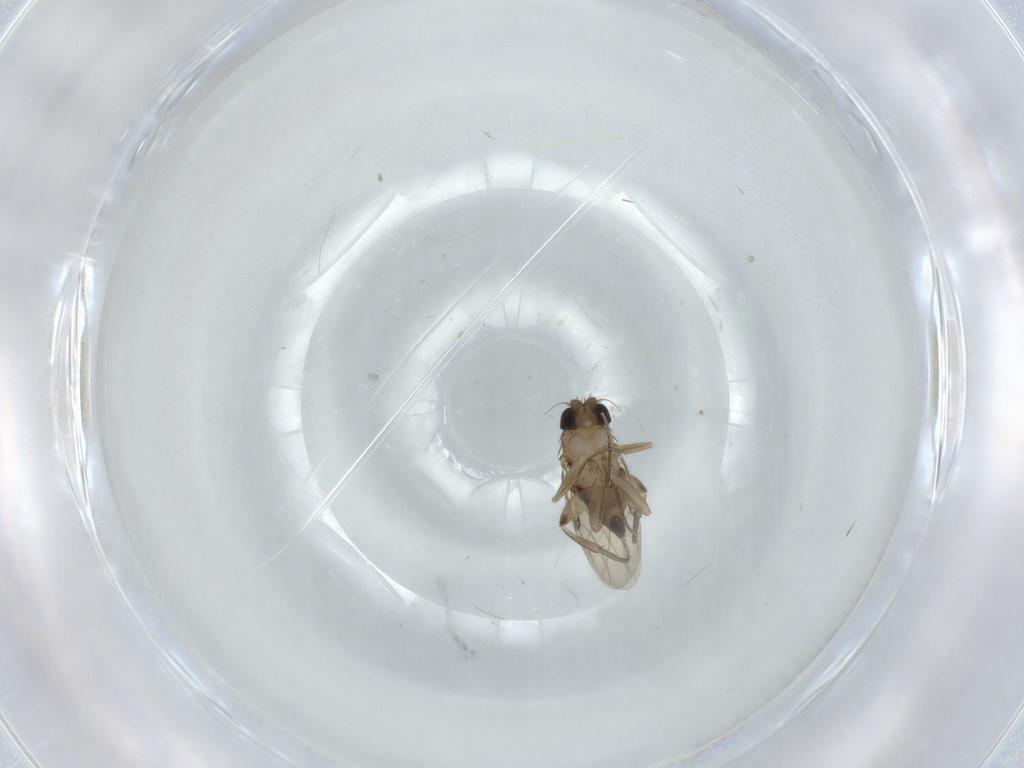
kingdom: Animalia
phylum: Arthropoda
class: Insecta
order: Diptera
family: Phoridae
